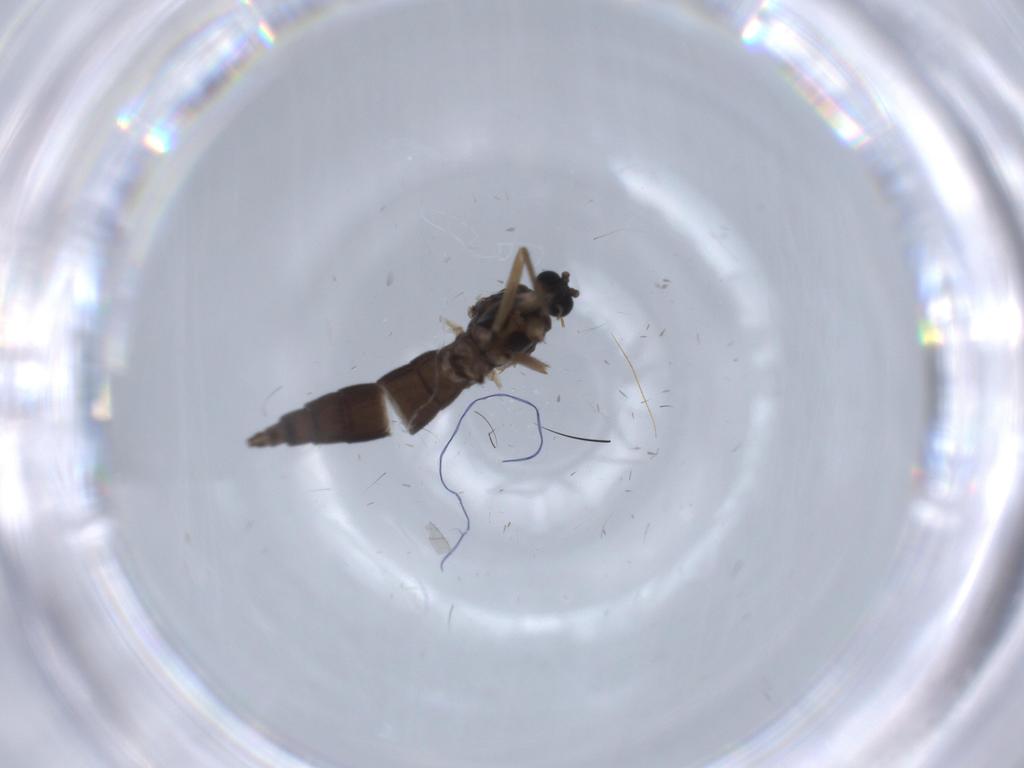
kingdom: Animalia
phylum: Arthropoda
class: Insecta
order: Diptera
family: Sciaridae
